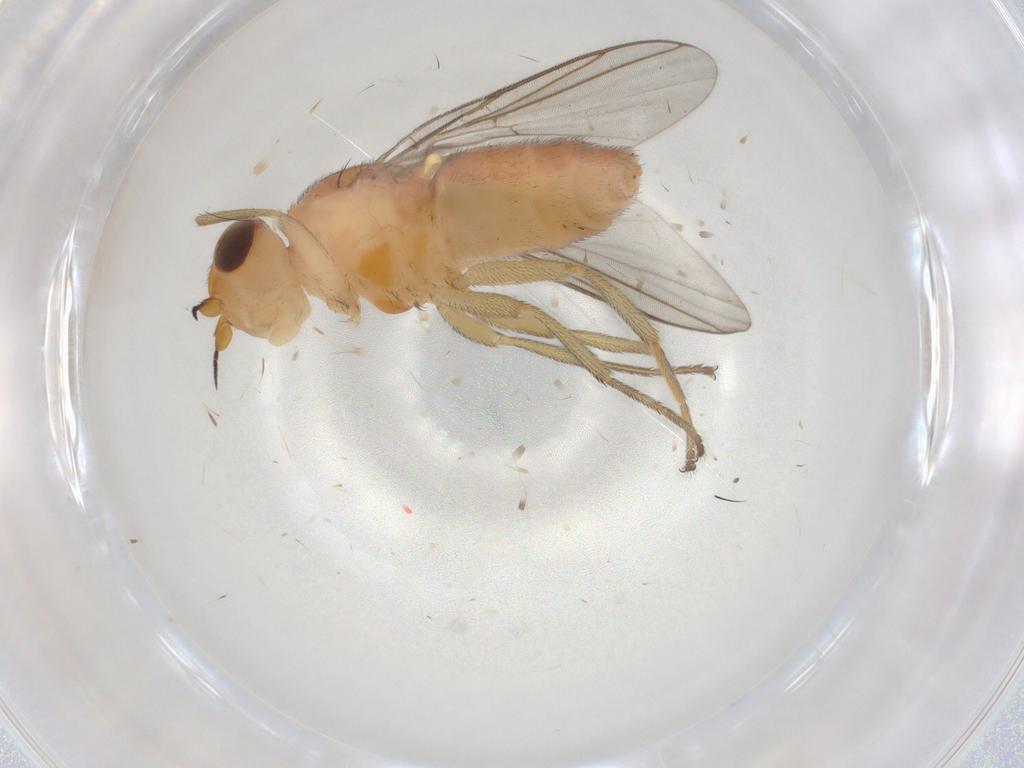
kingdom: Animalia
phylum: Arthropoda
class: Insecta
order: Diptera
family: Chloropidae
